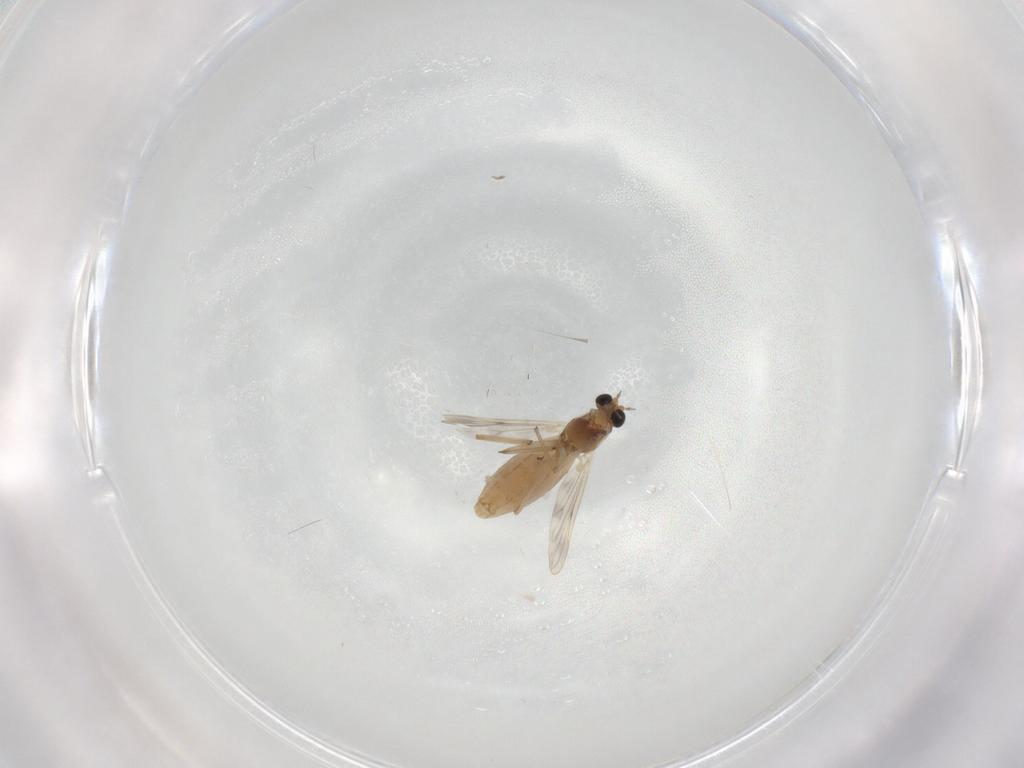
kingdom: Animalia
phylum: Arthropoda
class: Insecta
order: Diptera
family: Chironomidae
